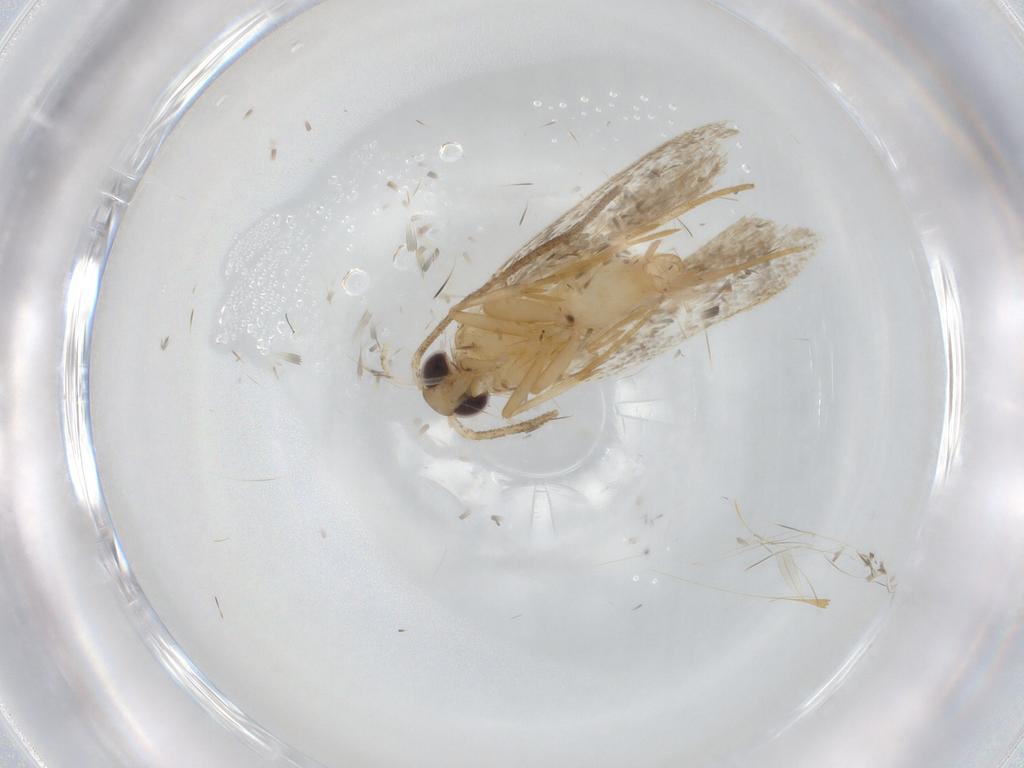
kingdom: Animalia
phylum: Arthropoda
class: Insecta
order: Lepidoptera
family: Autostichidae
